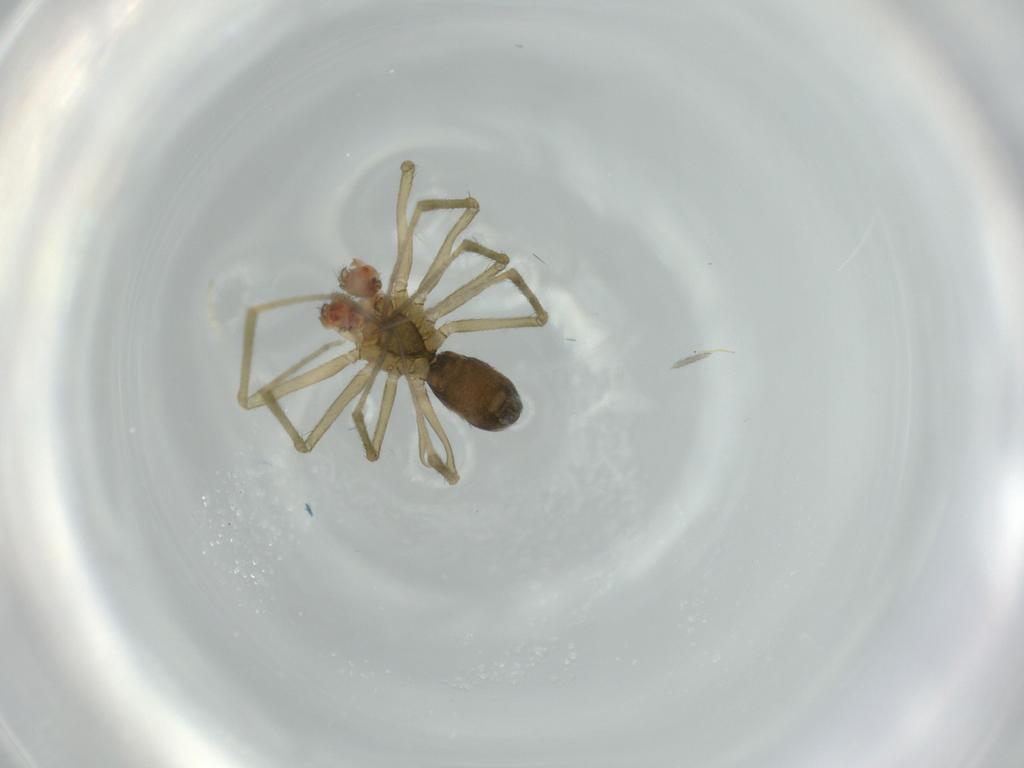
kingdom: Animalia
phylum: Arthropoda
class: Arachnida
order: Araneae
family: Linyphiidae
